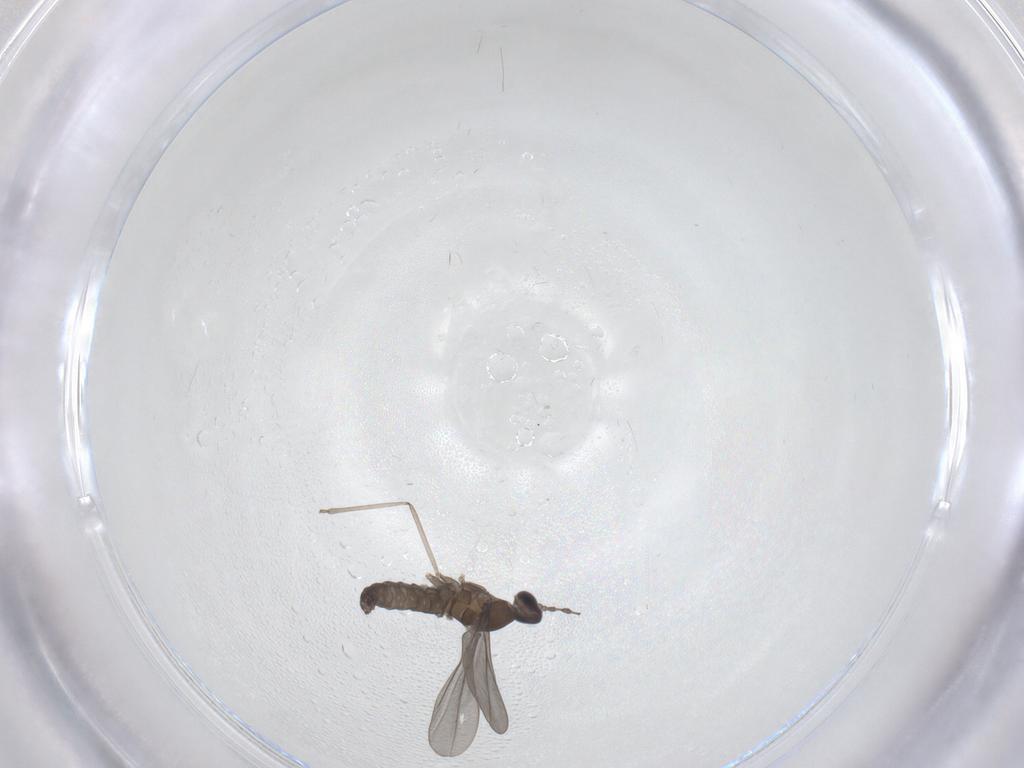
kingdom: Animalia
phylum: Arthropoda
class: Insecta
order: Diptera
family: Cecidomyiidae
